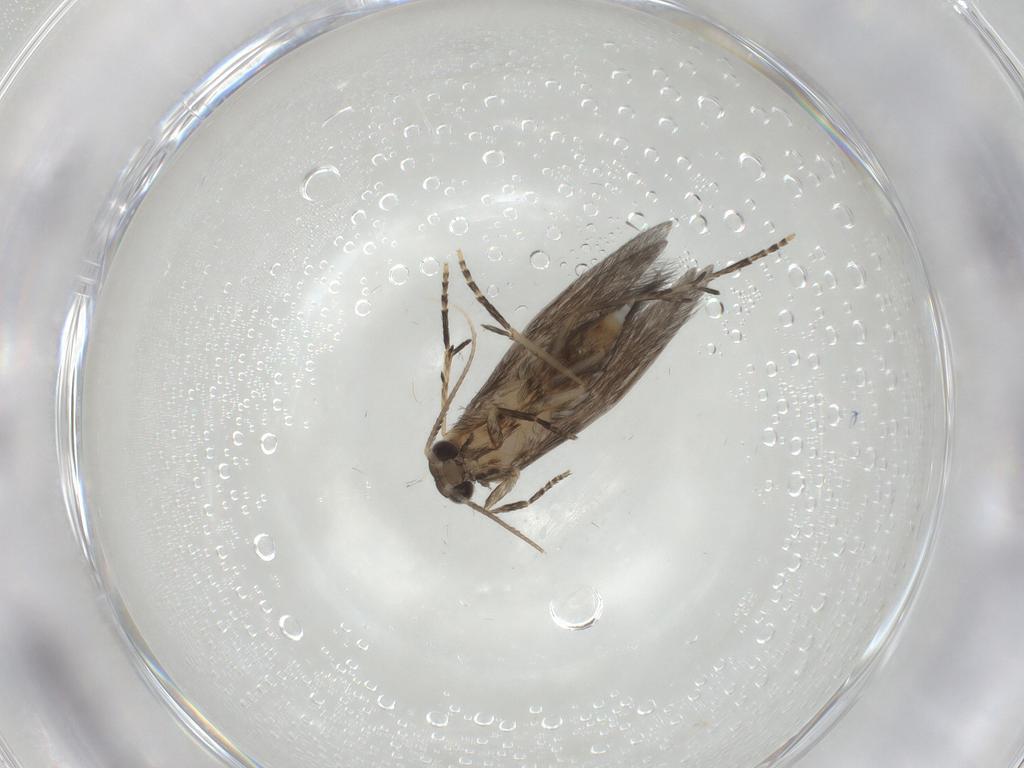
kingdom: Animalia
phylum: Arthropoda
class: Insecta
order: Trichoptera
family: Hydroptilidae
